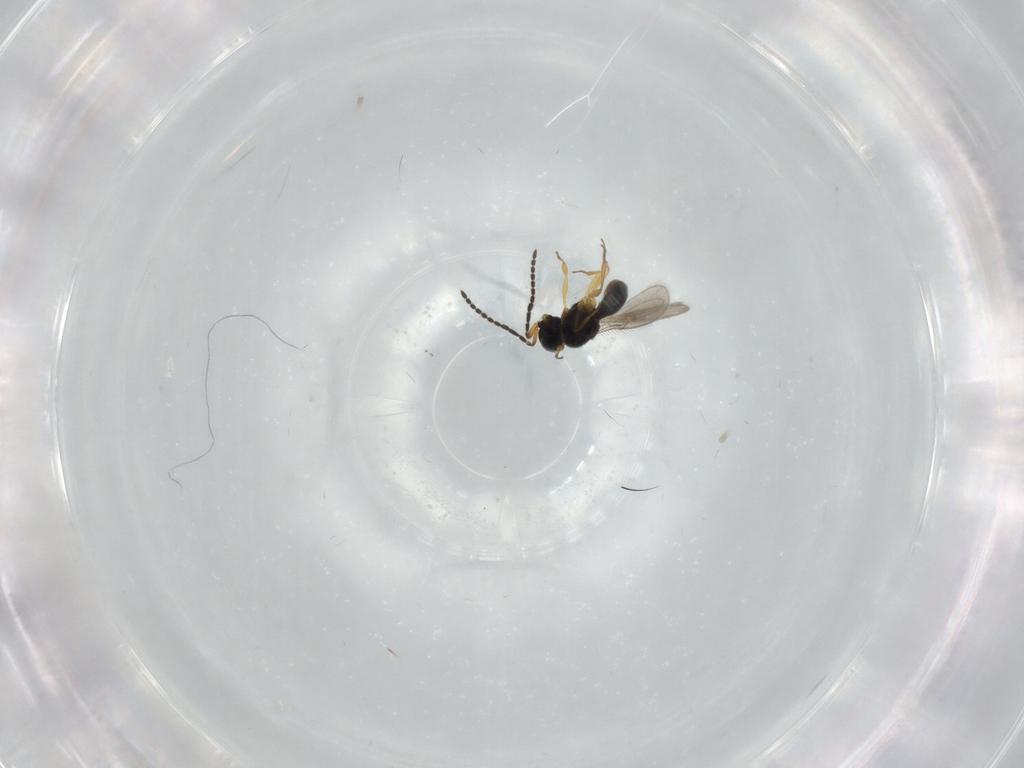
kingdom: Animalia
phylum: Arthropoda
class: Insecta
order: Hymenoptera
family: Scelionidae
